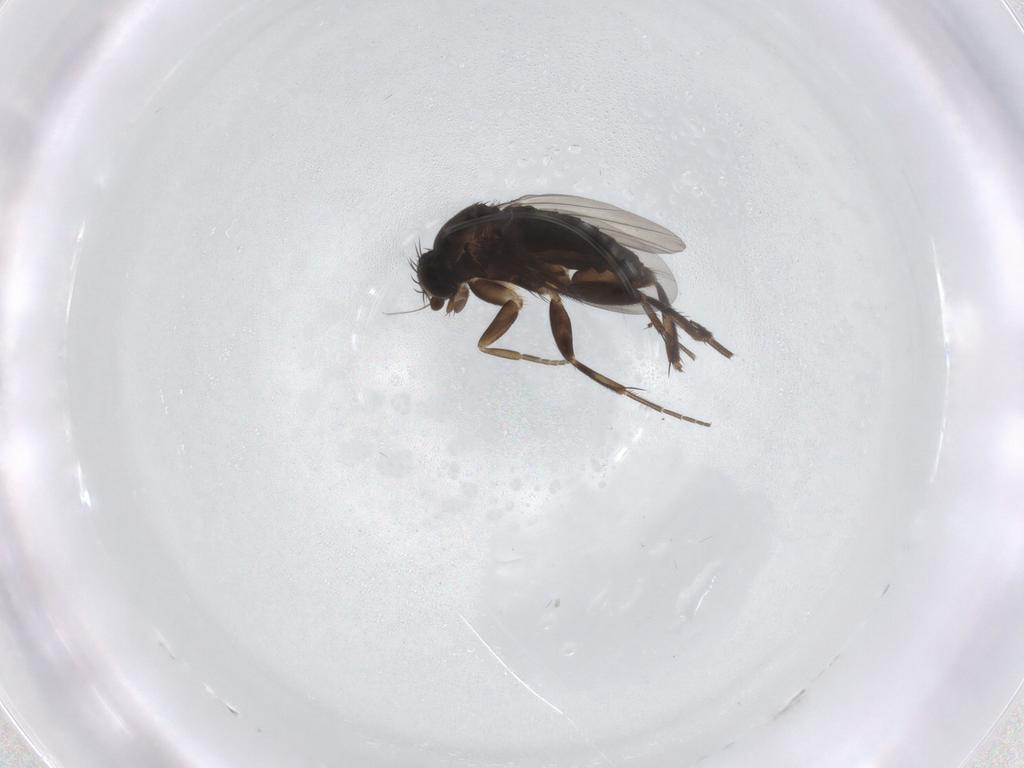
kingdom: Animalia
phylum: Arthropoda
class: Insecta
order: Diptera
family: Phoridae
